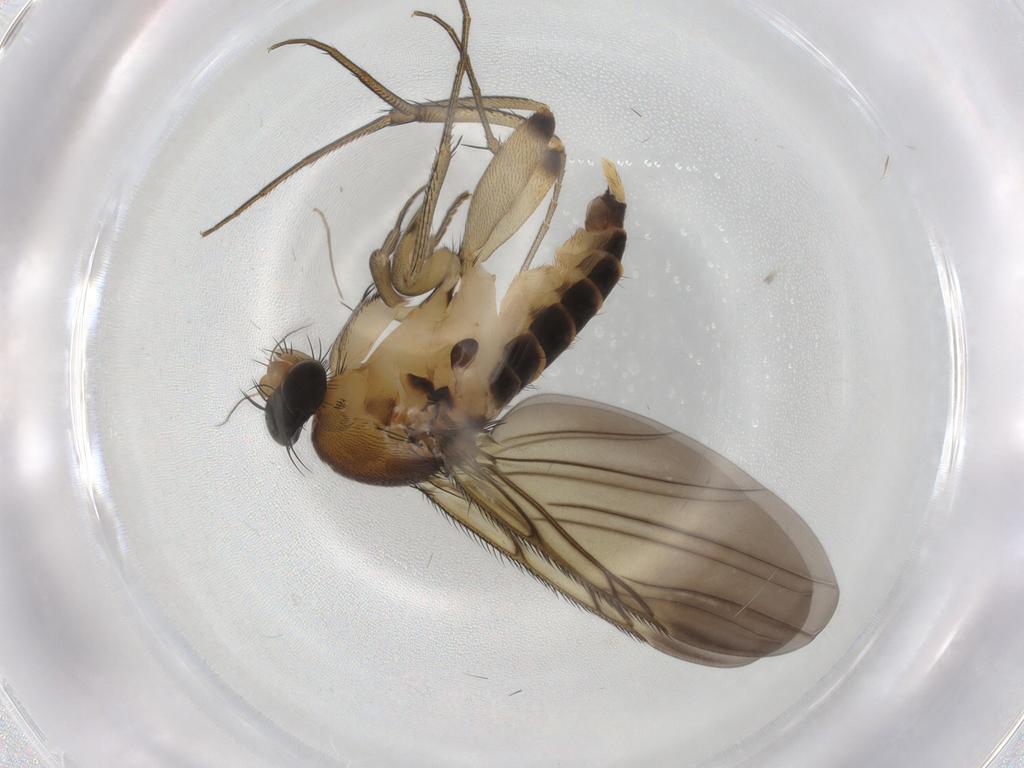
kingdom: Animalia
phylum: Arthropoda
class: Insecta
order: Diptera
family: Phoridae
